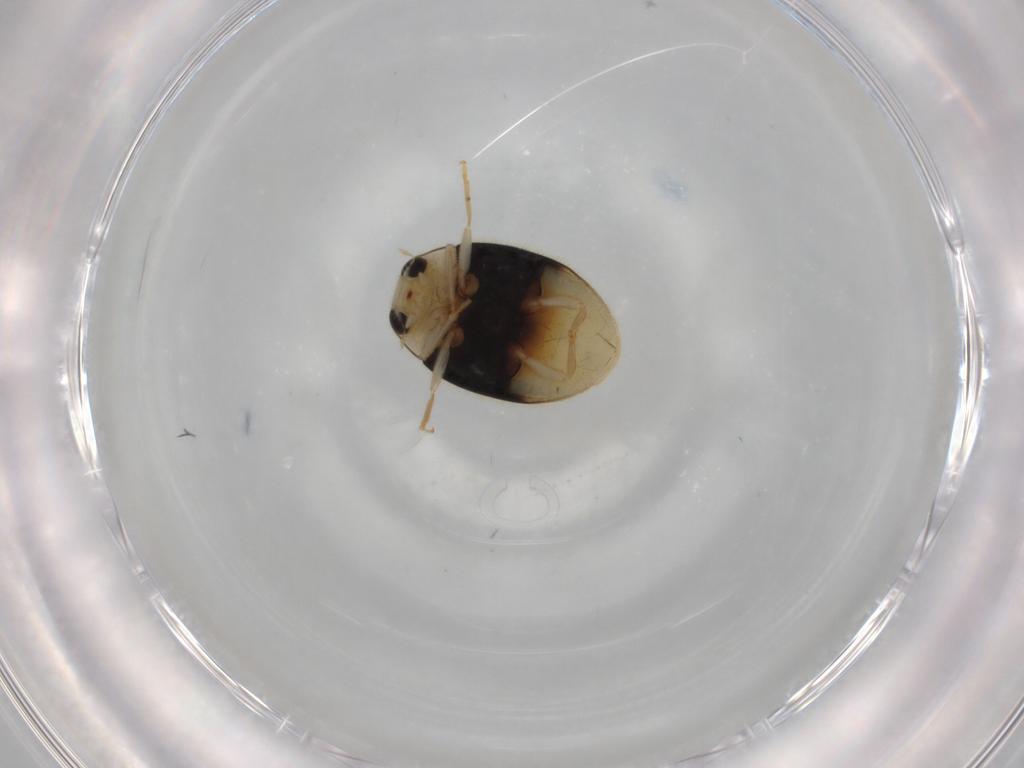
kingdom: Animalia
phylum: Arthropoda
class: Insecta
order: Coleoptera
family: Coccinellidae
